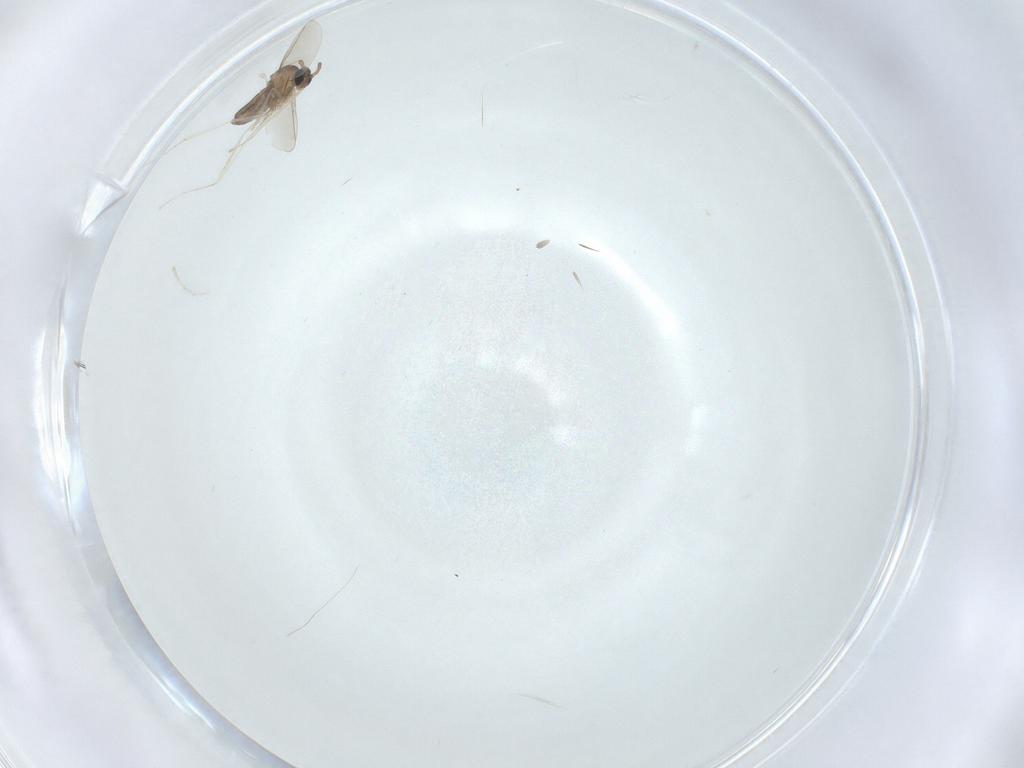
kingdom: Animalia
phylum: Arthropoda
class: Insecta
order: Diptera
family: Cecidomyiidae
